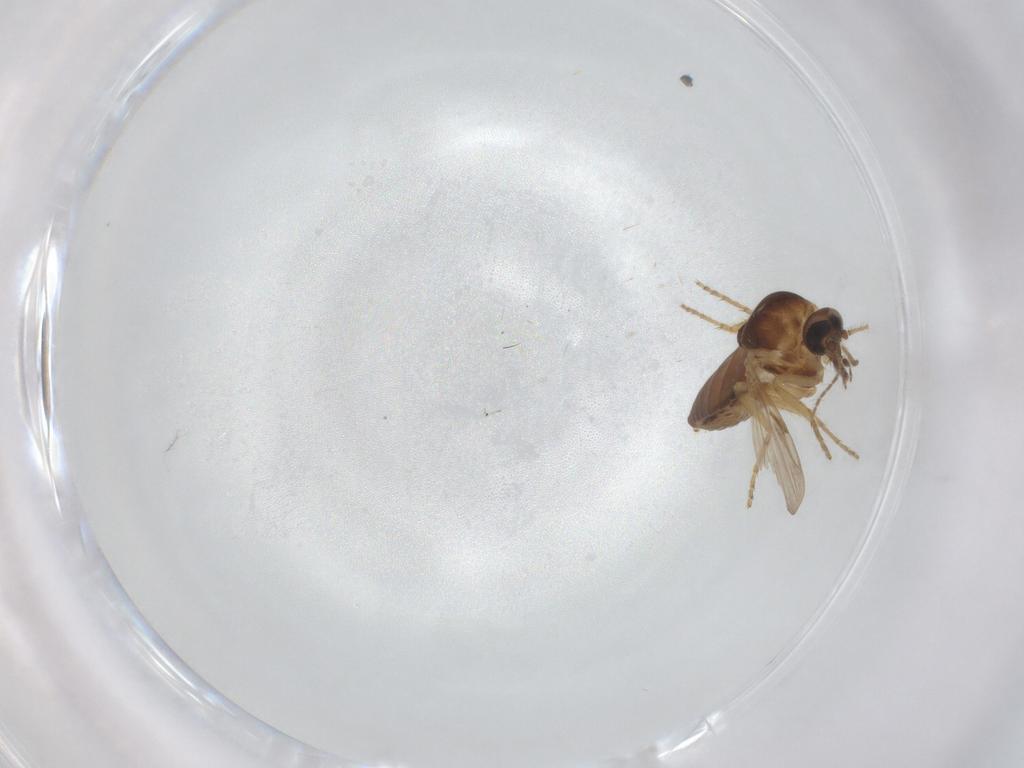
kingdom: Animalia
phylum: Arthropoda
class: Insecta
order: Diptera
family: Ceratopogonidae
